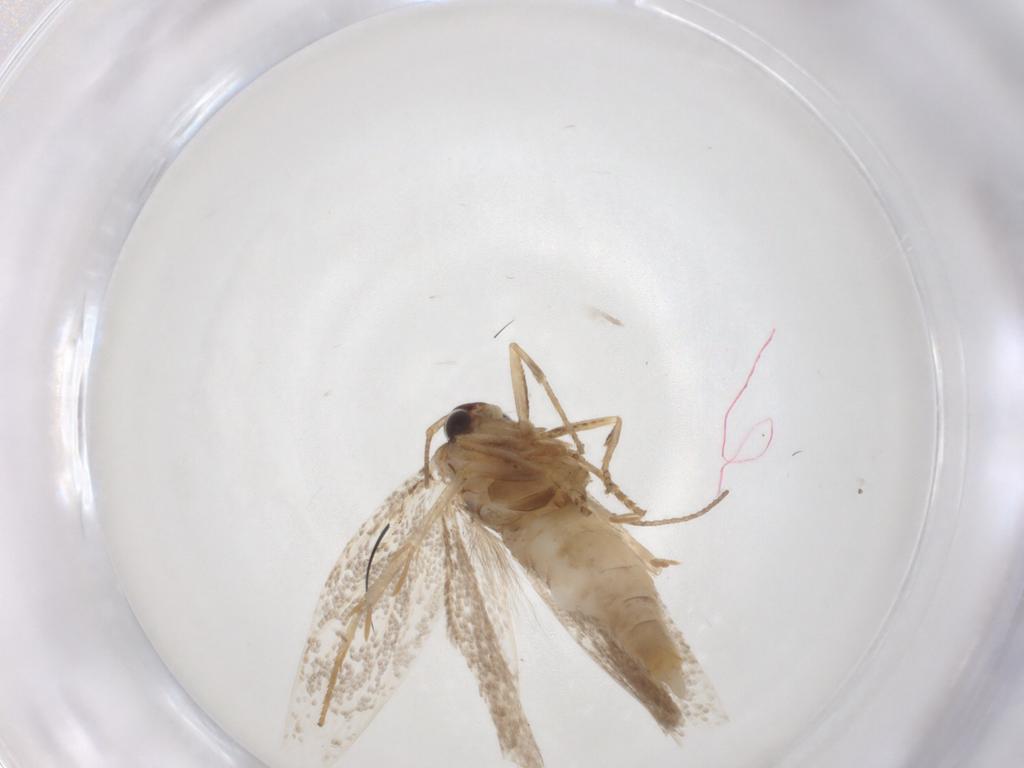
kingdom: Animalia
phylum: Arthropoda
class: Insecta
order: Lepidoptera
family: Gelechiidae
